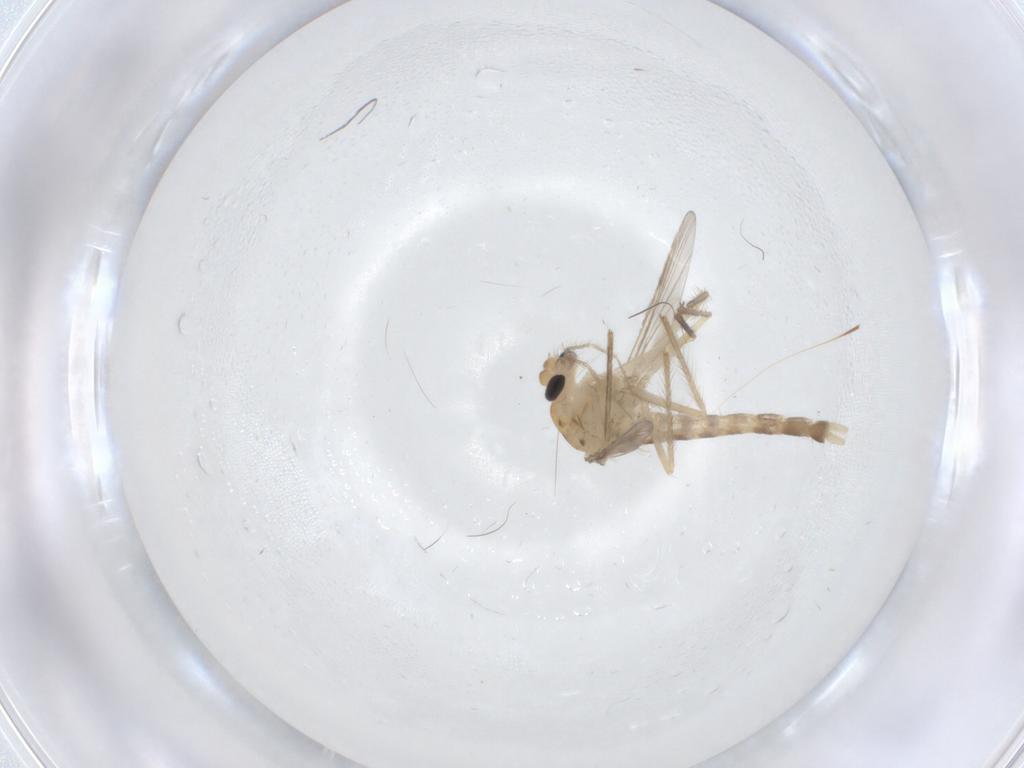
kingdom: Animalia
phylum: Arthropoda
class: Insecta
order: Diptera
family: Chironomidae
